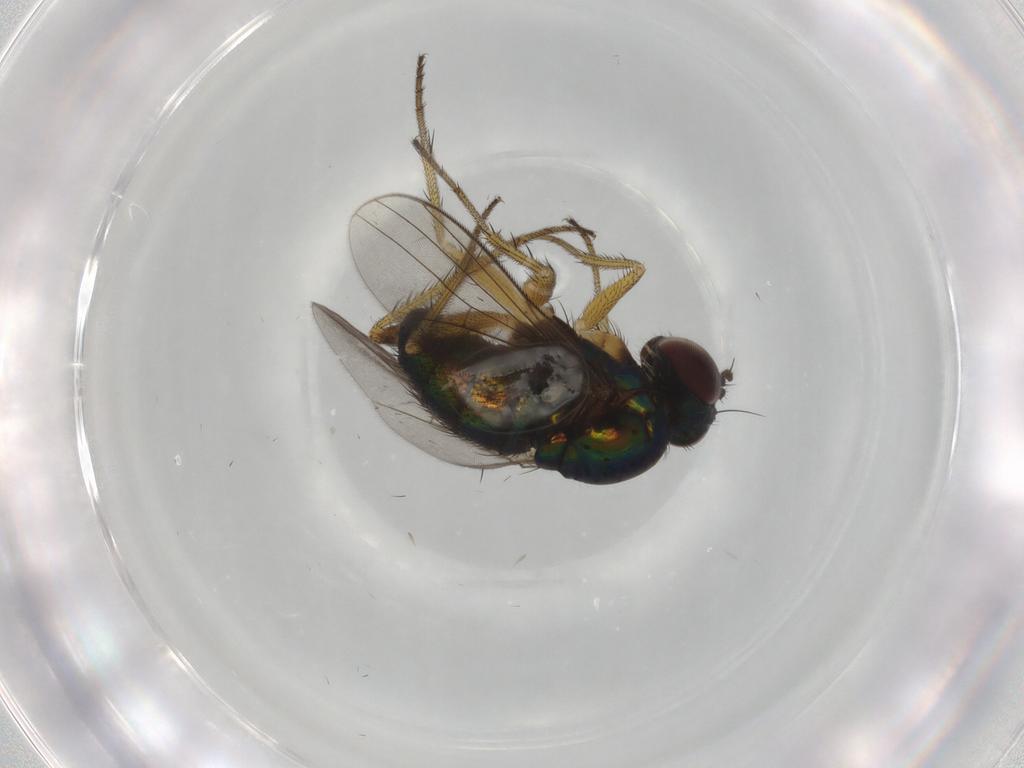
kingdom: Animalia
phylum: Arthropoda
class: Insecta
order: Diptera
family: Dolichopodidae
